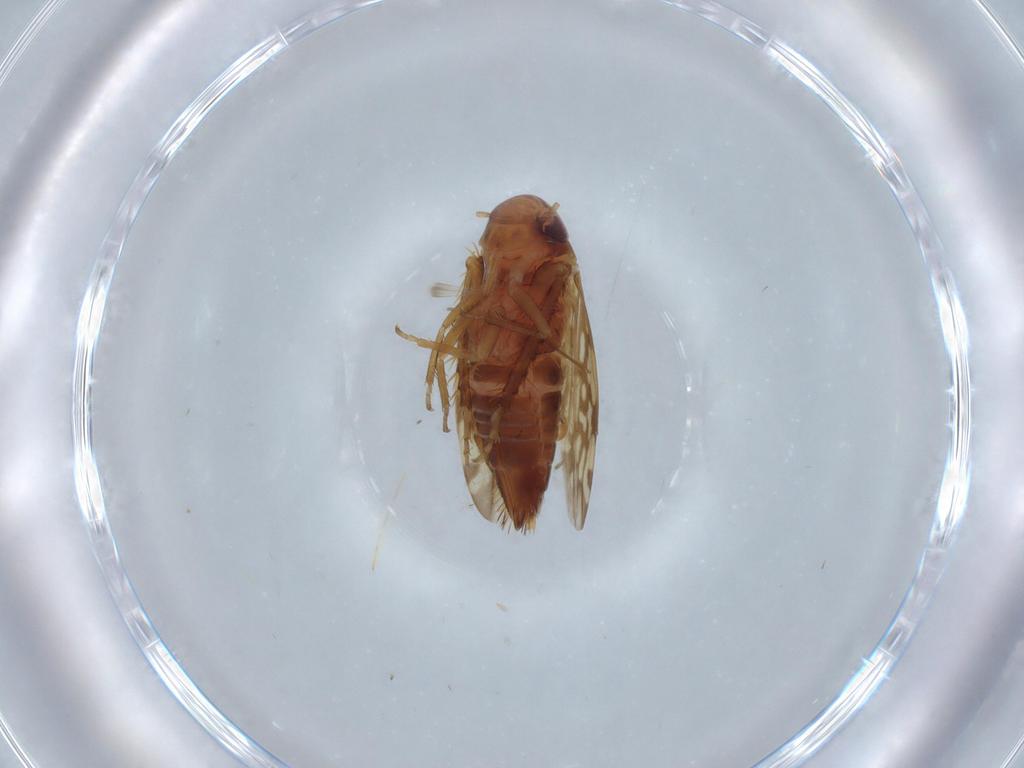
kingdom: Animalia
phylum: Arthropoda
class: Insecta
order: Hemiptera
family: Cicadellidae
